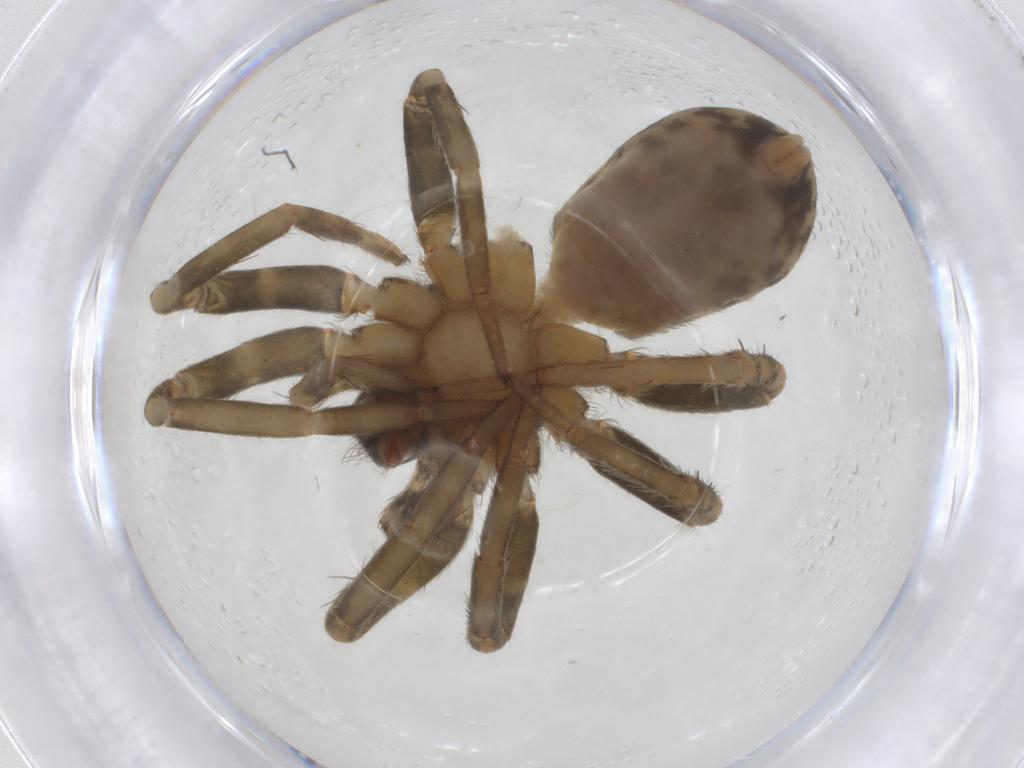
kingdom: Animalia
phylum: Arthropoda
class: Arachnida
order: Araneae
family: Agelenidae
